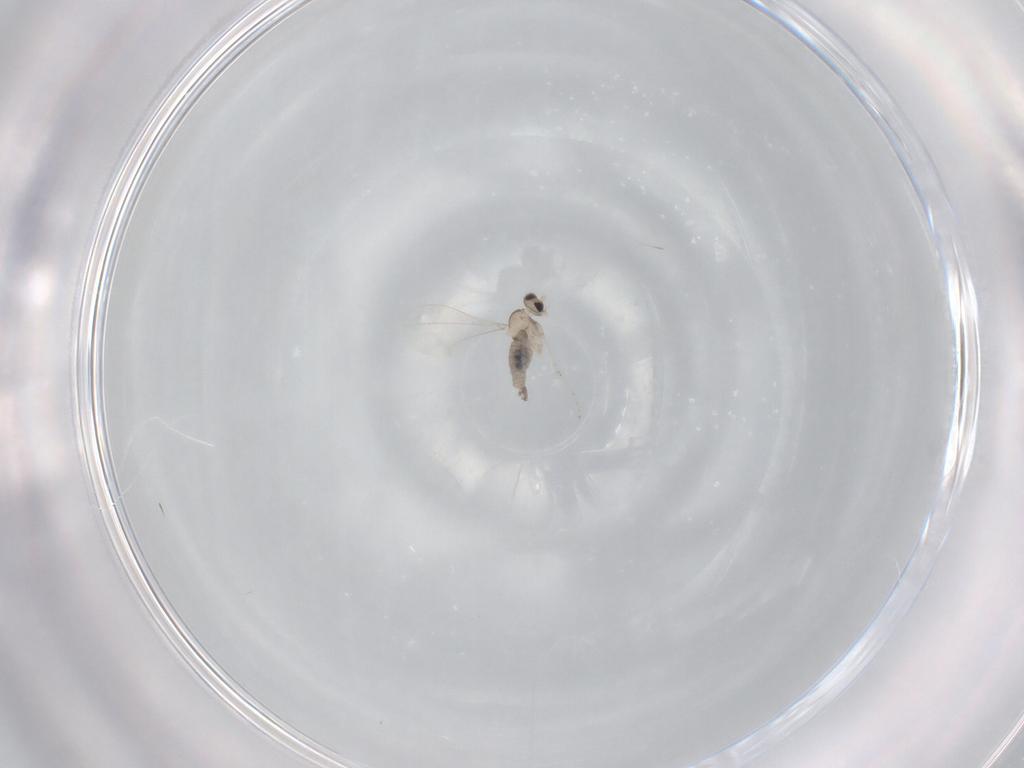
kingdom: Animalia
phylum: Arthropoda
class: Insecta
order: Diptera
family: Cecidomyiidae
